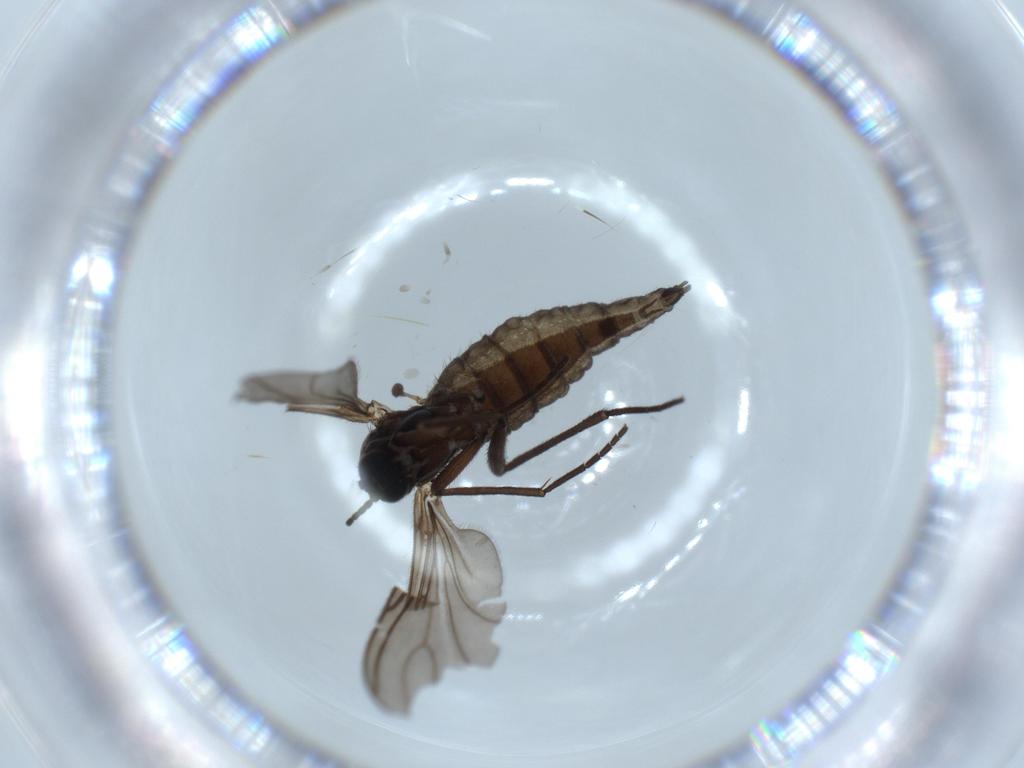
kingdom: Animalia
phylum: Arthropoda
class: Insecta
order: Diptera
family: Sciaridae
